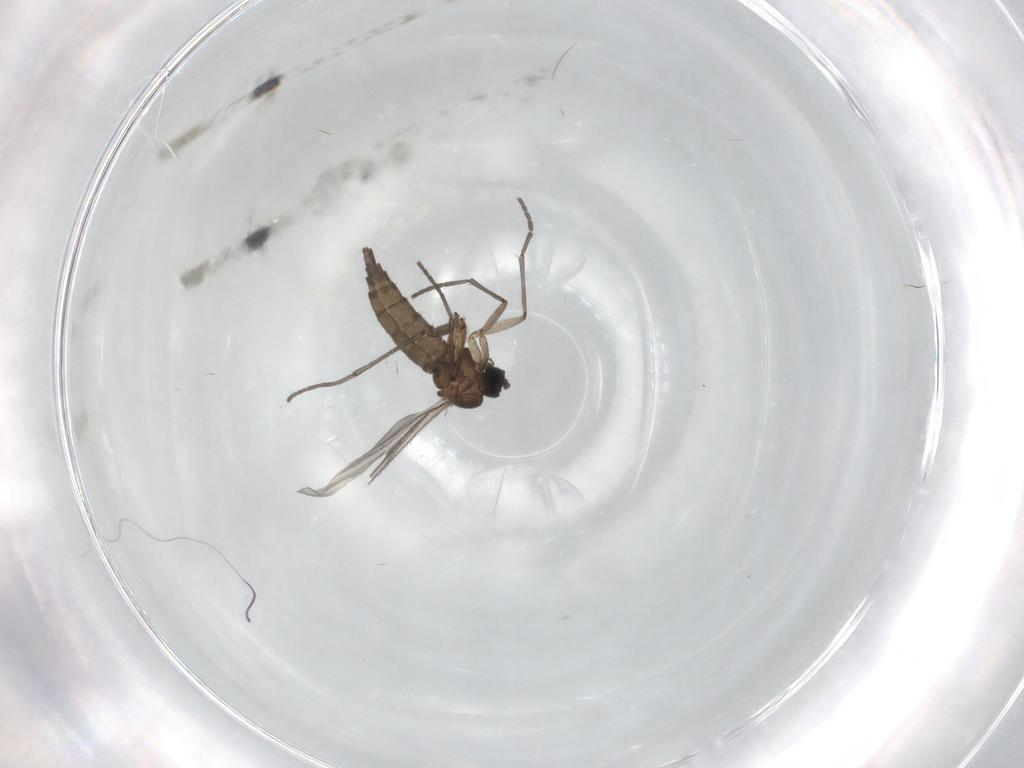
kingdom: Animalia
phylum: Arthropoda
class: Insecta
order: Diptera
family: Sciaridae
